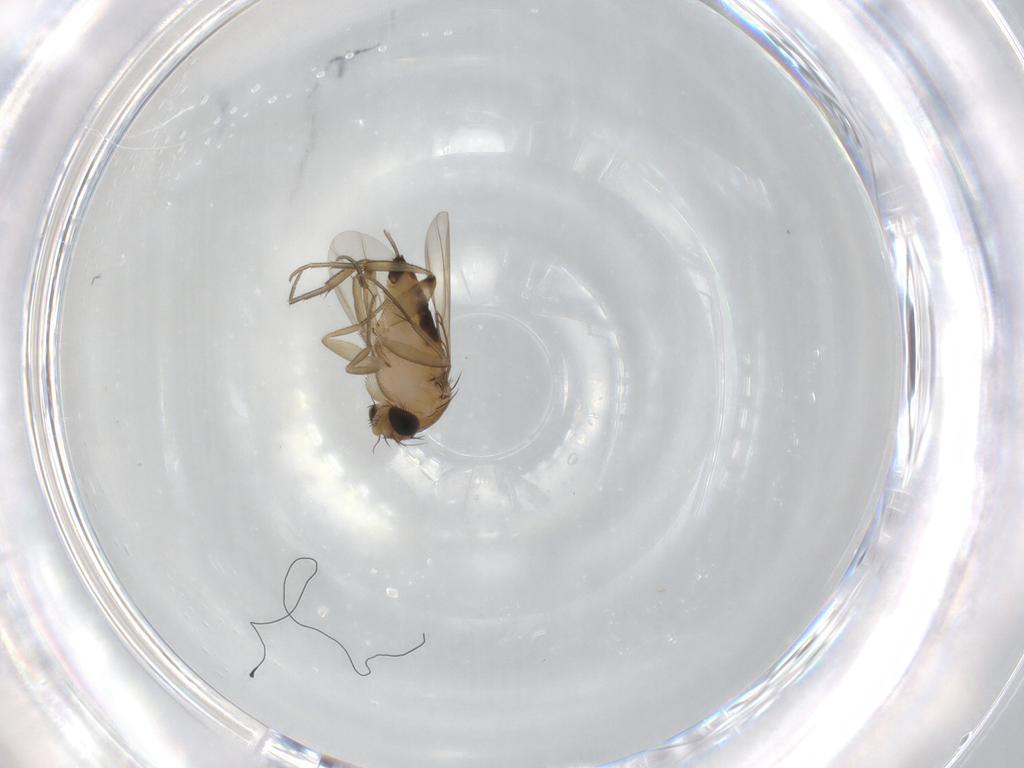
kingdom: Animalia
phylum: Arthropoda
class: Insecta
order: Diptera
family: Phoridae
